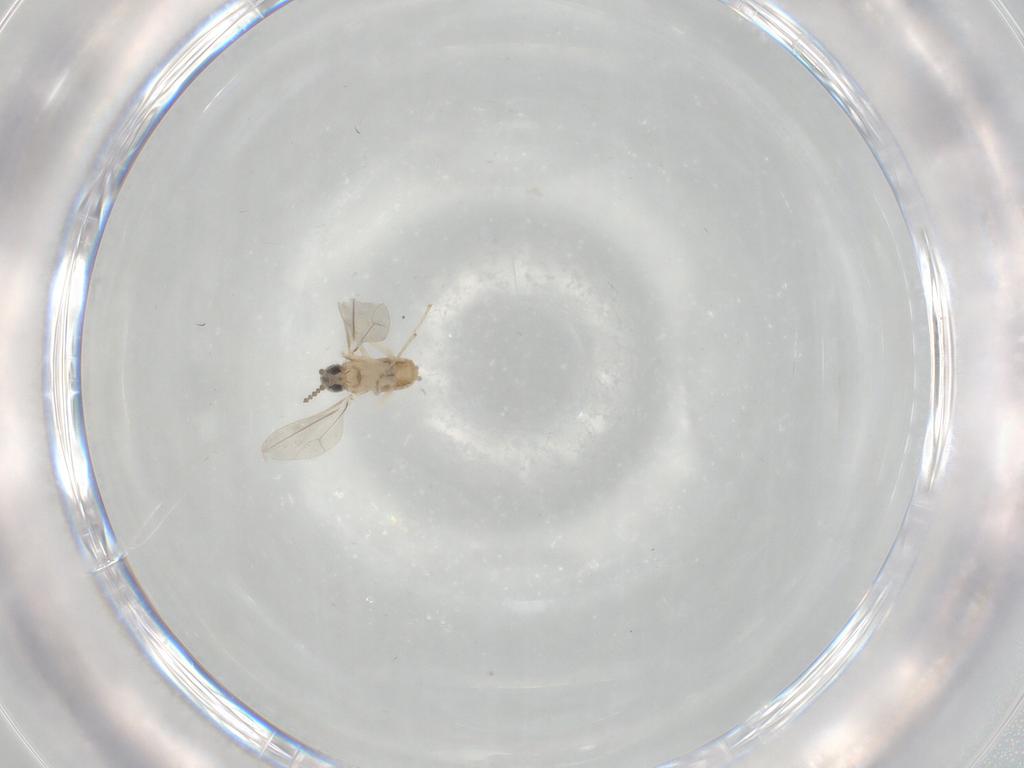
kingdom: Animalia
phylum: Arthropoda
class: Insecta
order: Diptera
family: Cecidomyiidae
